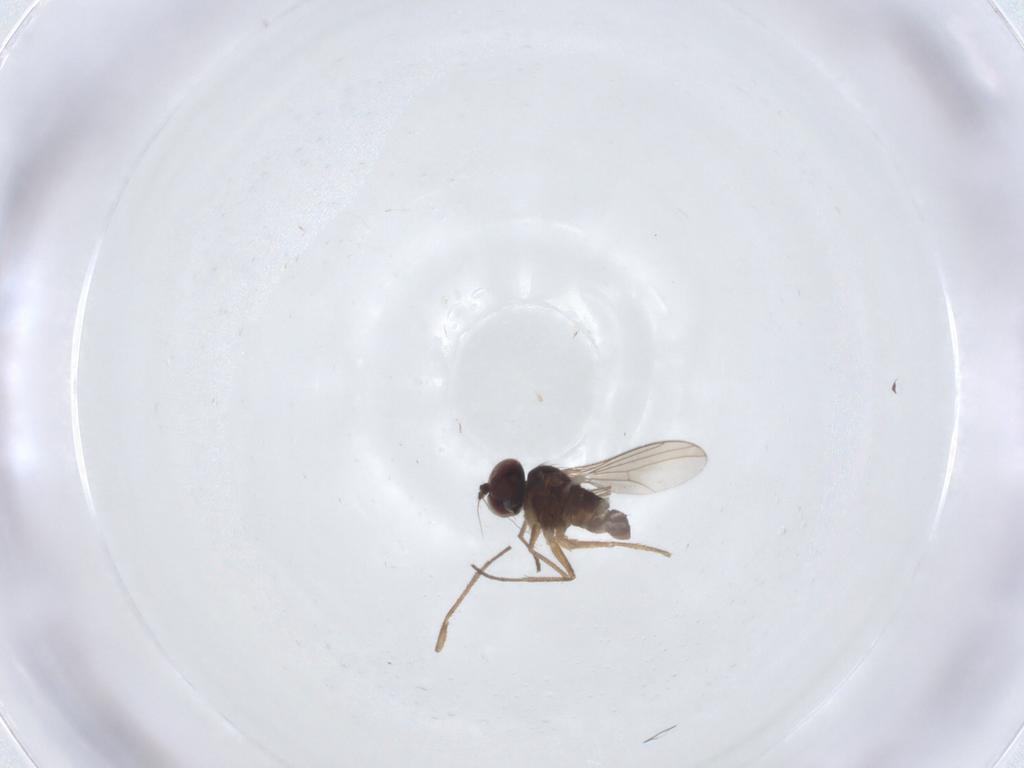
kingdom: Animalia
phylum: Arthropoda
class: Insecta
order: Diptera
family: Dolichopodidae
